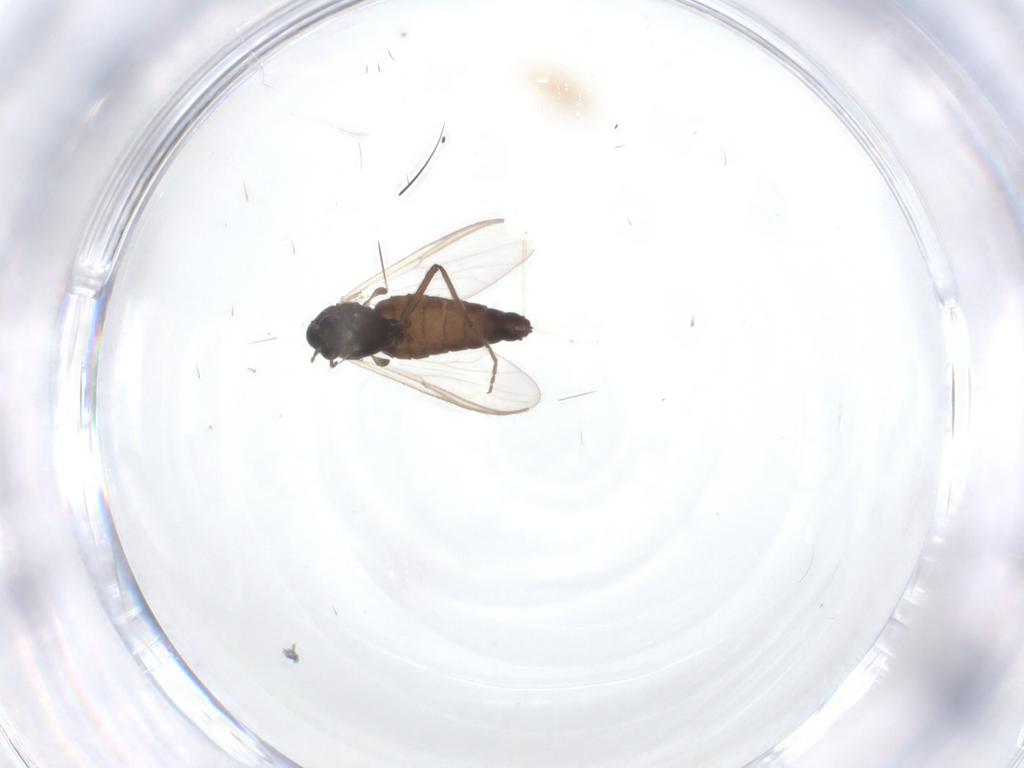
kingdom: Animalia
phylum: Arthropoda
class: Insecta
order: Diptera
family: Cecidomyiidae
